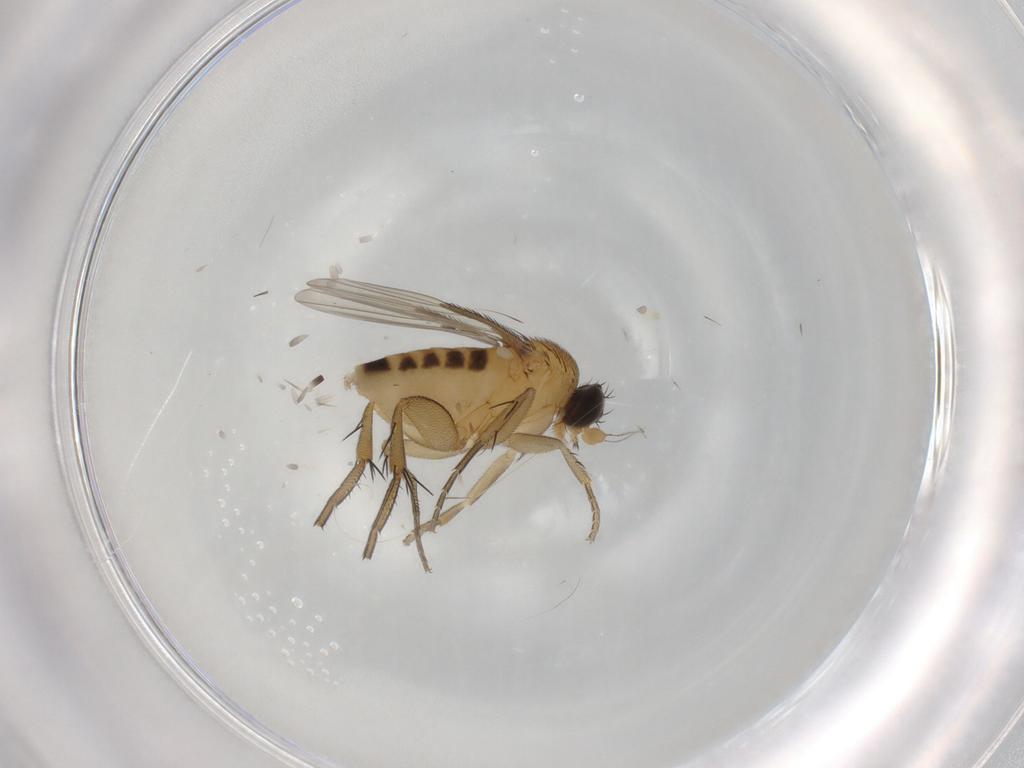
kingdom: Animalia
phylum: Arthropoda
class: Insecta
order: Diptera
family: Phoridae
